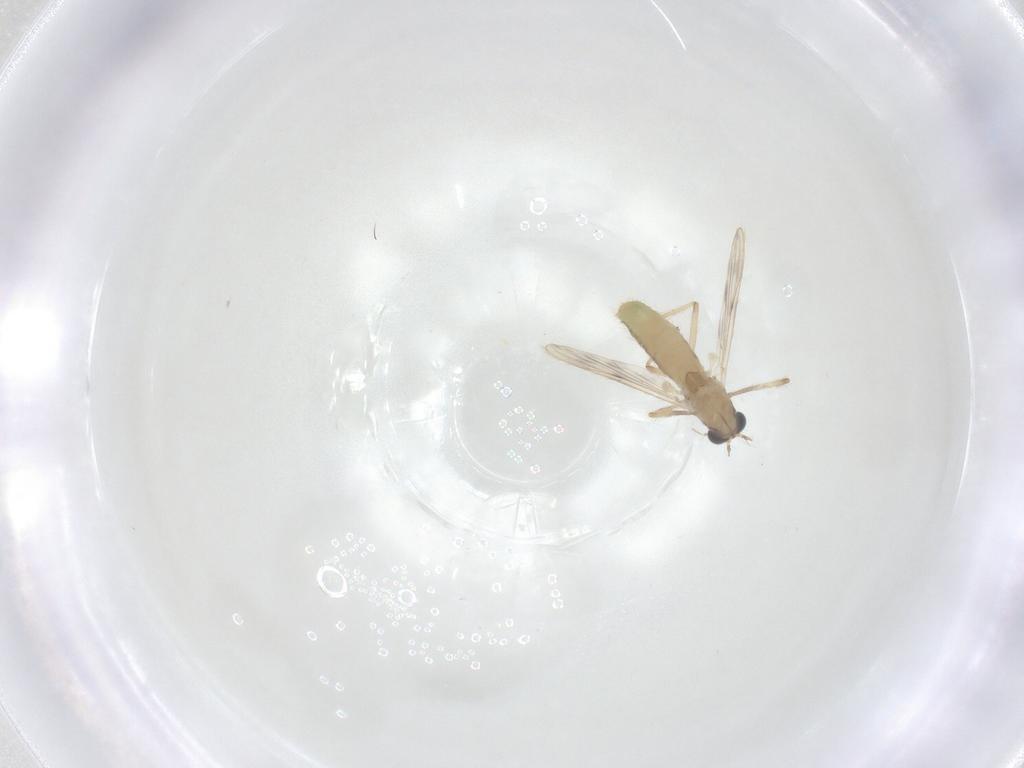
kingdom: Animalia
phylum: Arthropoda
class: Insecta
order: Diptera
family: Chironomidae
